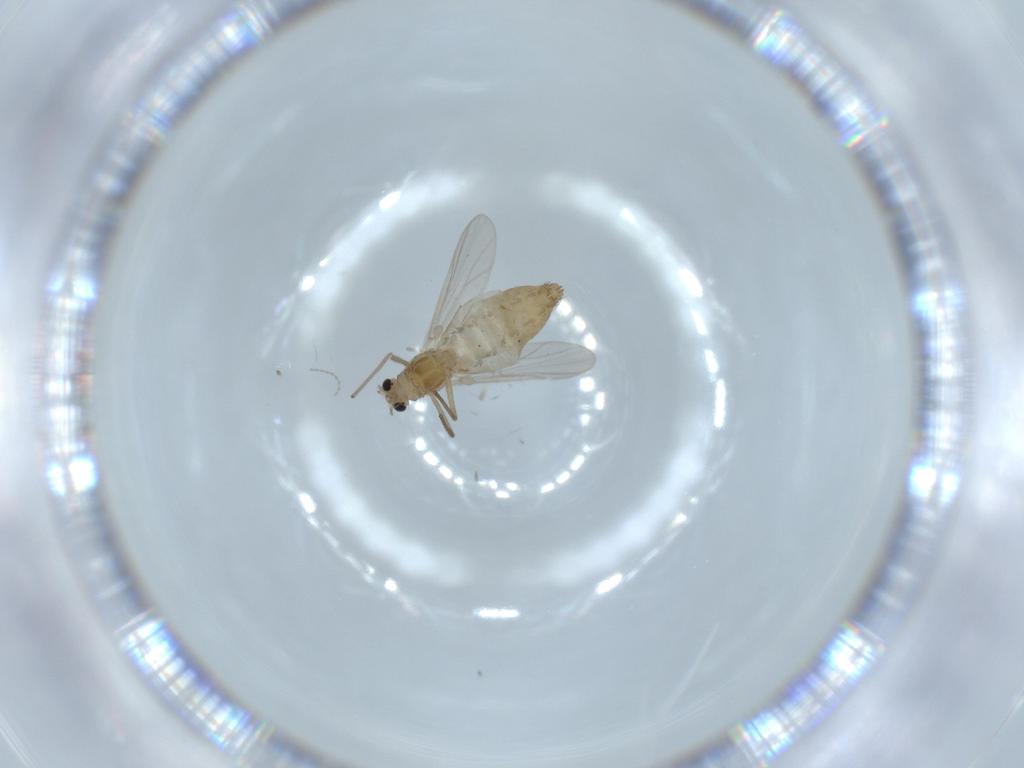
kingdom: Animalia
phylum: Arthropoda
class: Insecta
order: Diptera
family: Chironomidae
